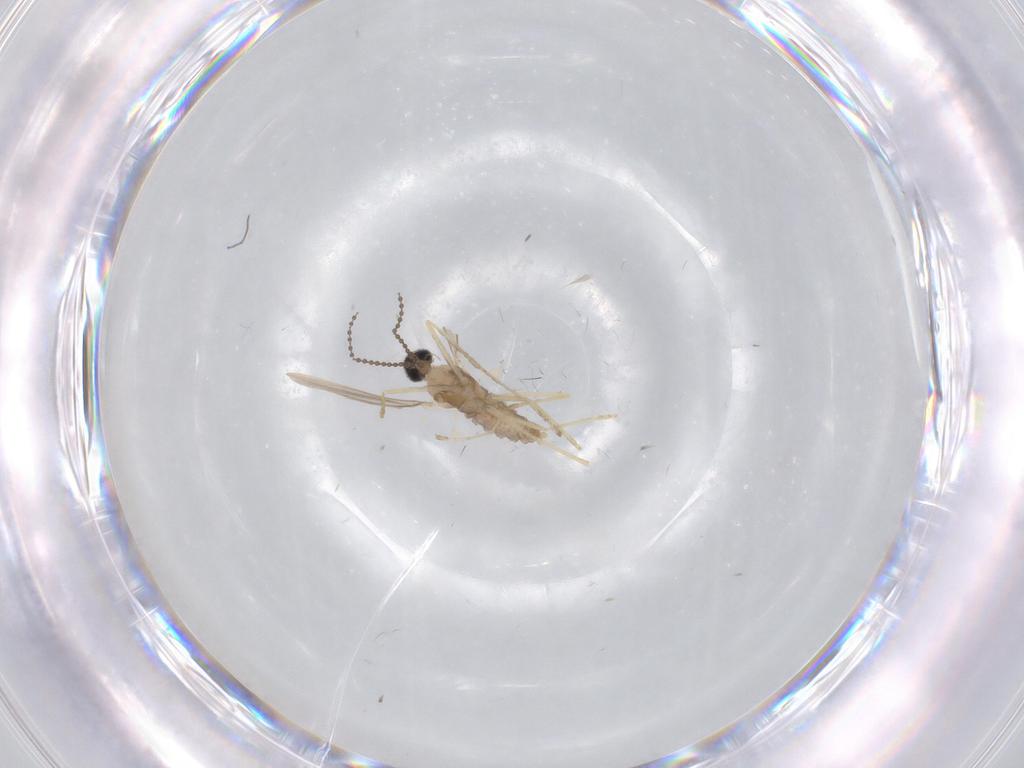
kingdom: Animalia
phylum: Arthropoda
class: Insecta
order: Diptera
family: Cecidomyiidae
